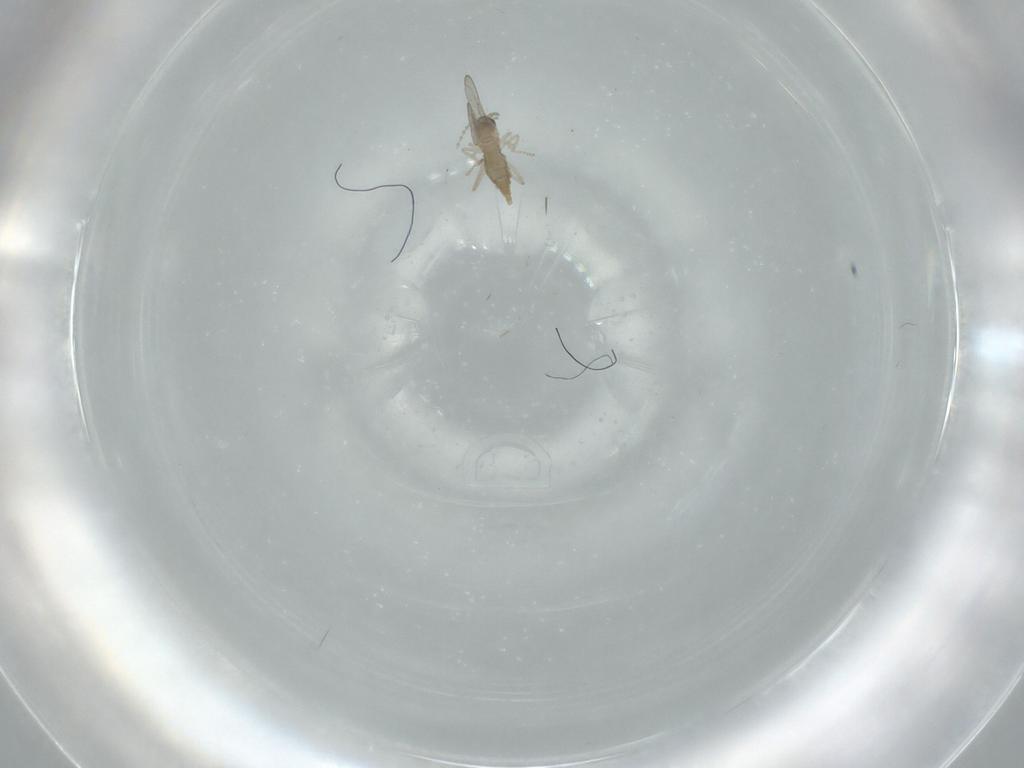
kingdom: Animalia
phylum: Arthropoda
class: Insecta
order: Diptera
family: Cecidomyiidae
